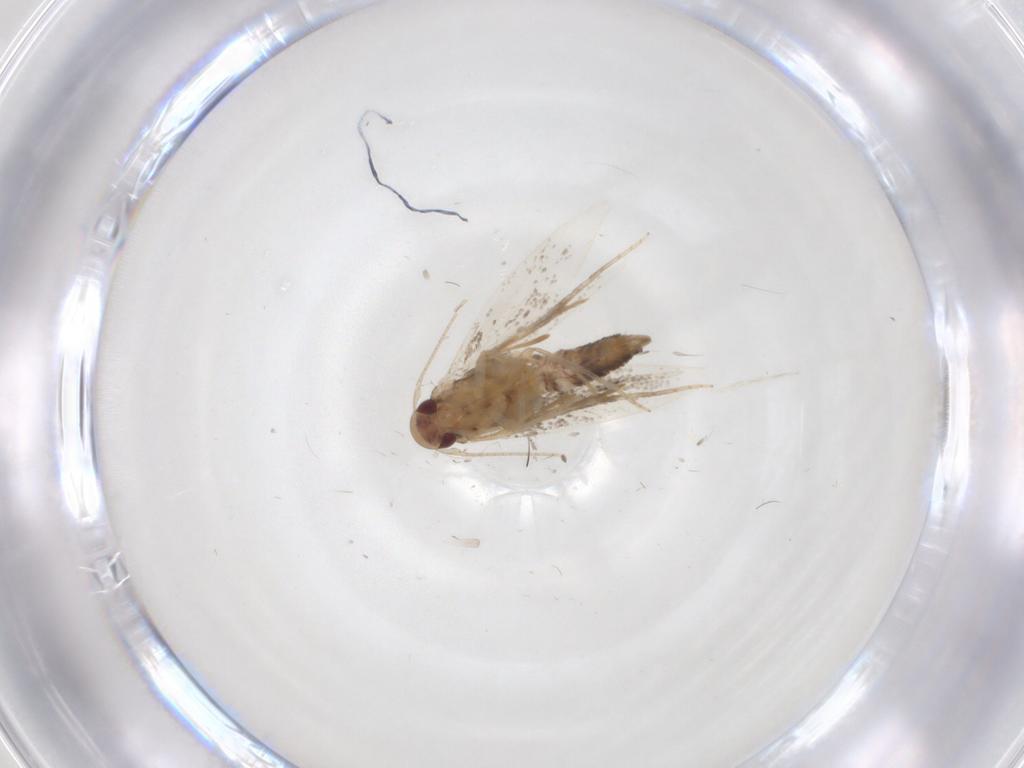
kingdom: Animalia
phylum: Arthropoda
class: Insecta
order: Lepidoptera
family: Gelechiidae
